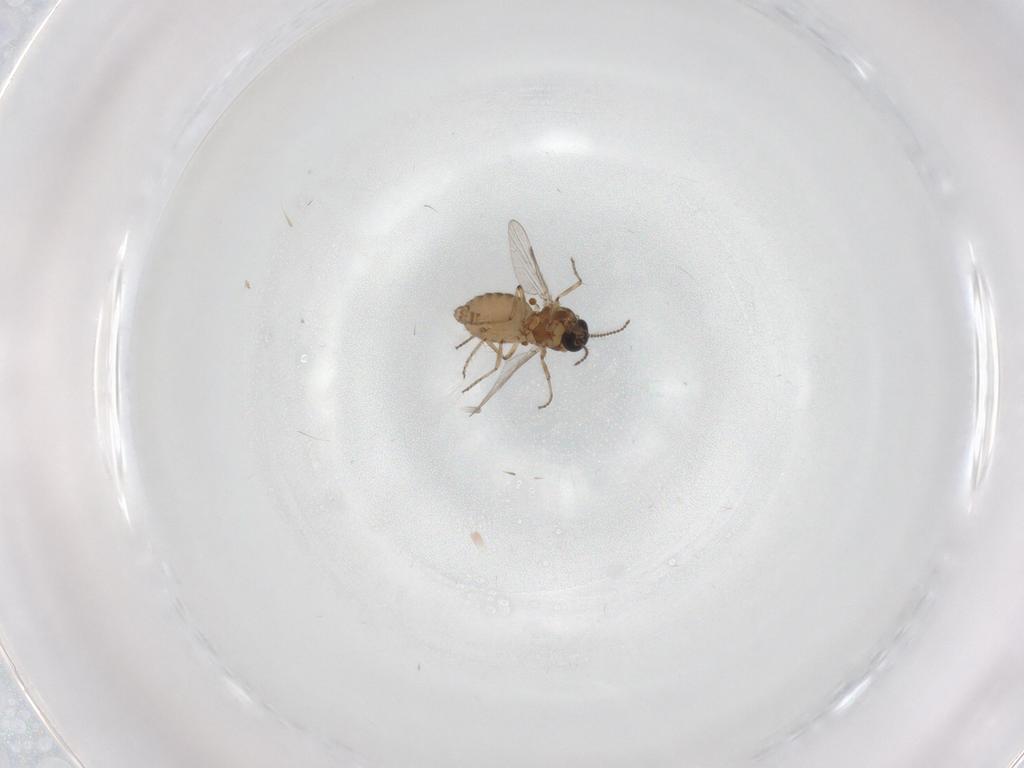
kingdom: Animalia
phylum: Arthropoda
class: Insecta
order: Diptera
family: Ceratopogonidae
